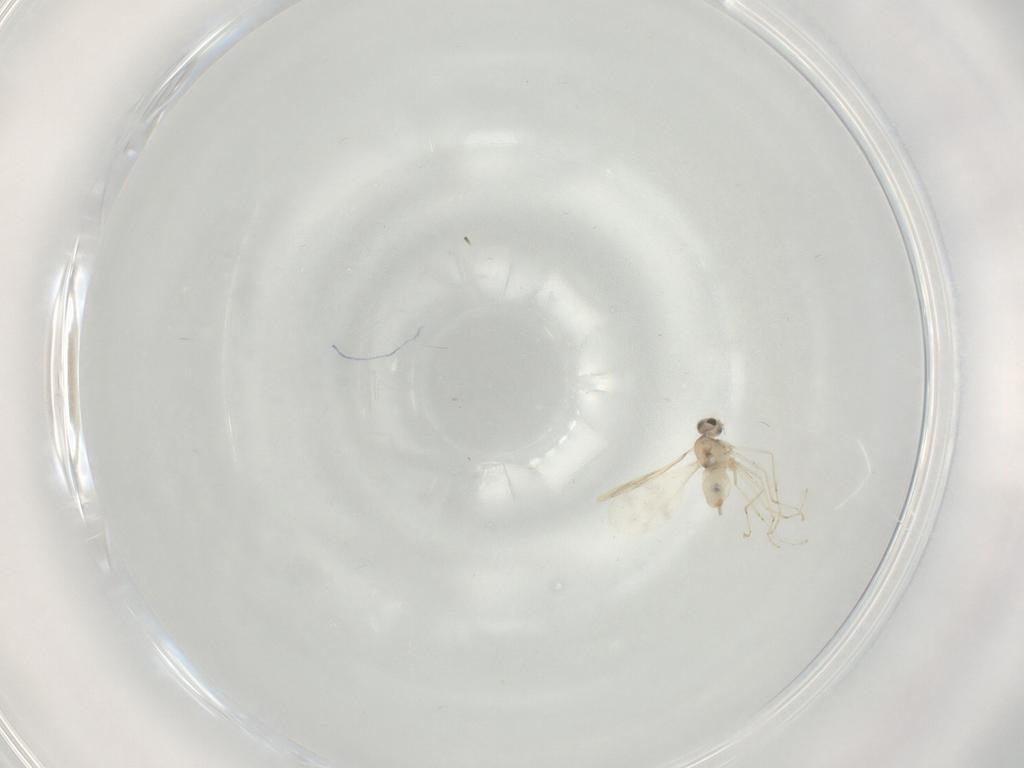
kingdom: Animalia
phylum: Arthropoda
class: Insecta
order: Diptera
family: Cecidomyiidae
